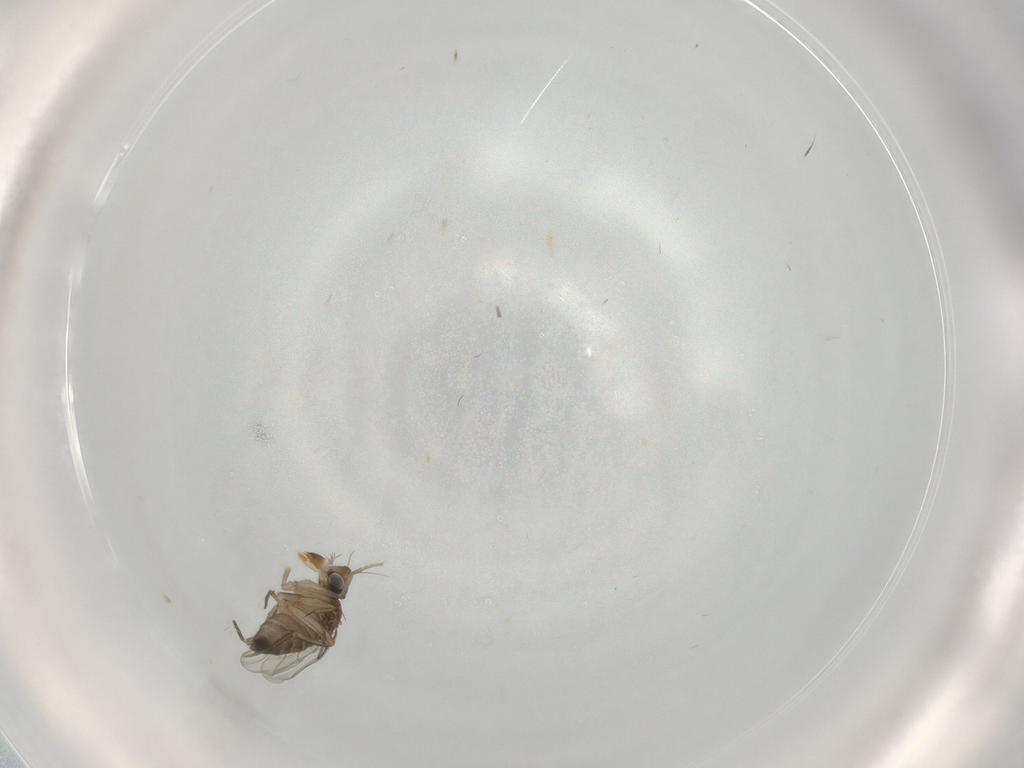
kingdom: Animalia
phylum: Arthropoda
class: Insecta
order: Diptera
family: Phoridae
